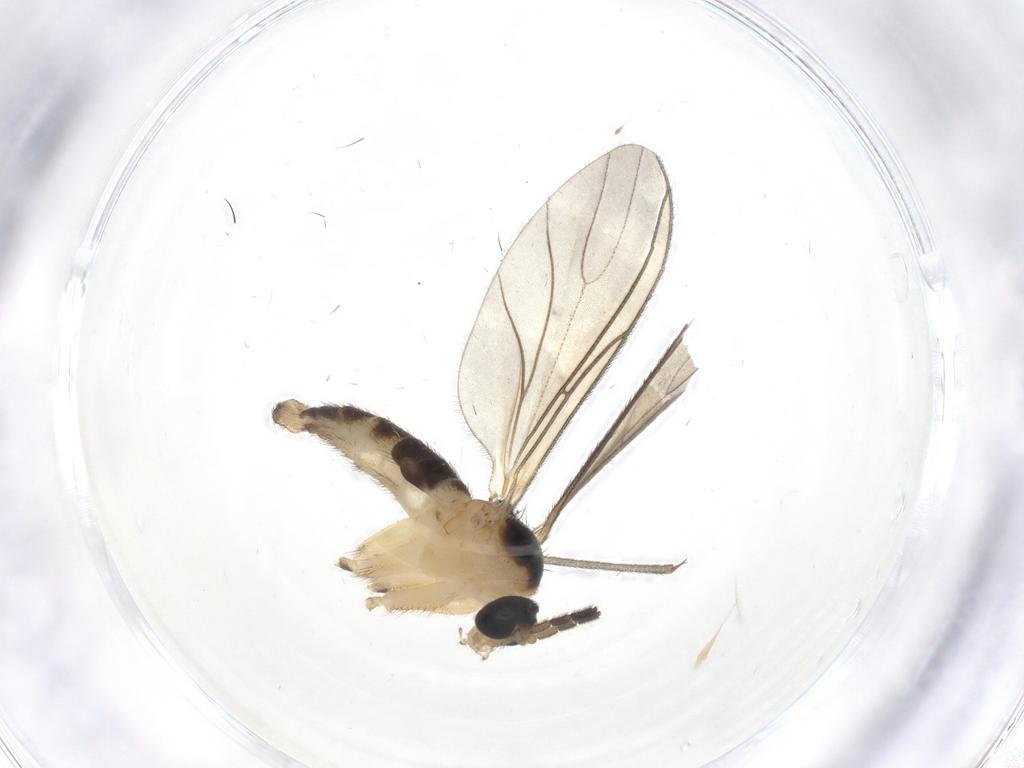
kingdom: Animalia
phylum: Arthropoda
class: Insecta
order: Diptera
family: Sciaridae
